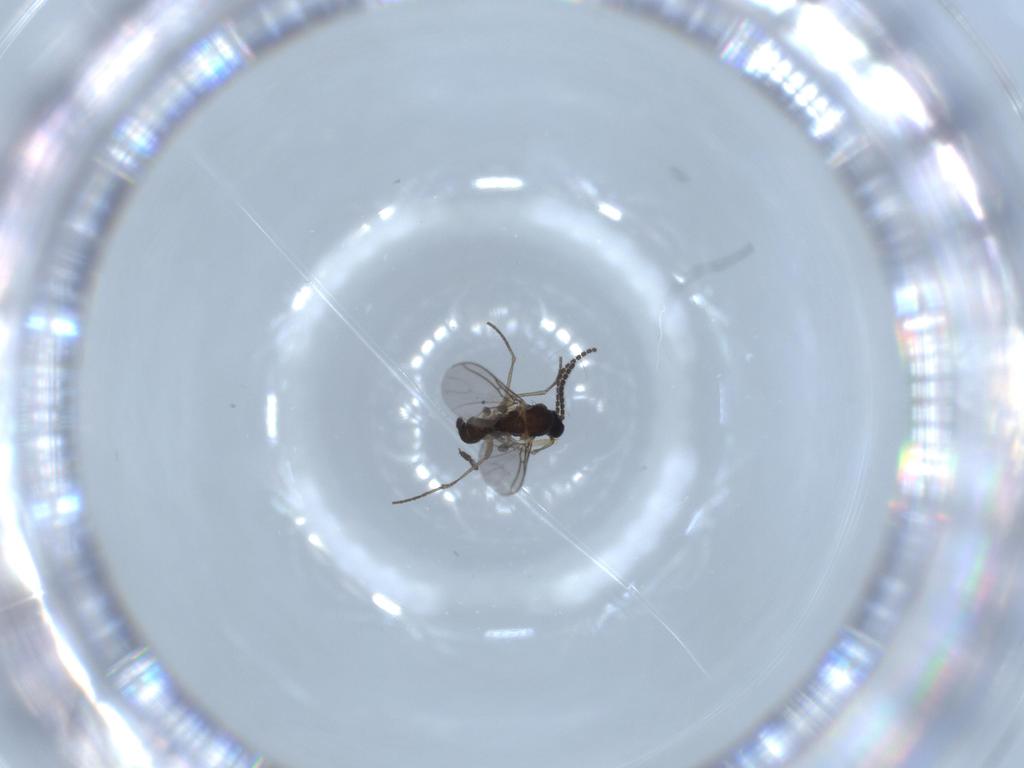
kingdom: Animalia
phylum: Arthropoda
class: Insecta
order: Diptera
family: Sciaridae
